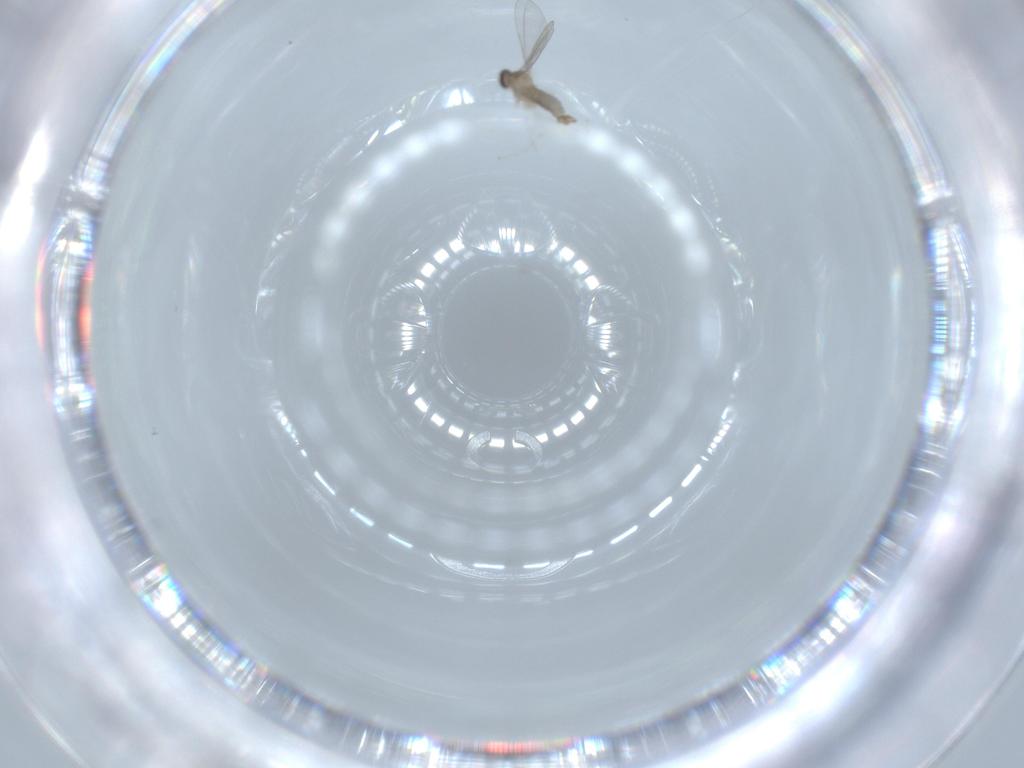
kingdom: Animalia
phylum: Arthropoda
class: Insecta
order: Diptera
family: Cecidomyiidae
